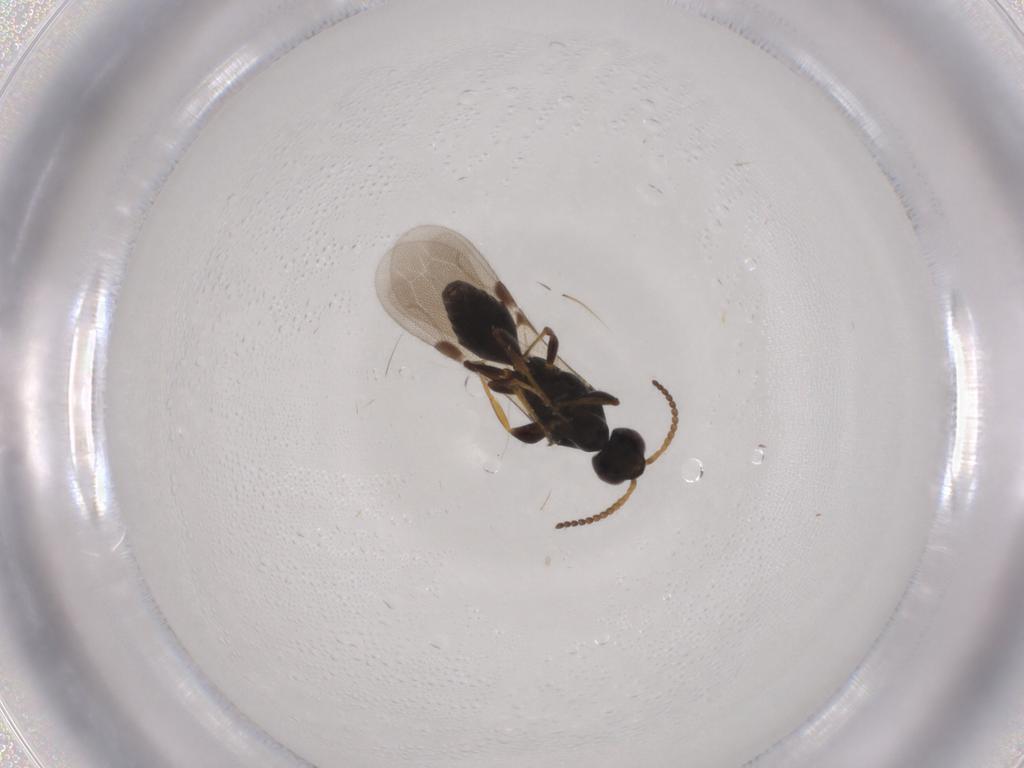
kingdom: Animalia
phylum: Arthropoda
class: Insecta
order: Hymenoptera
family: Bethylidae
